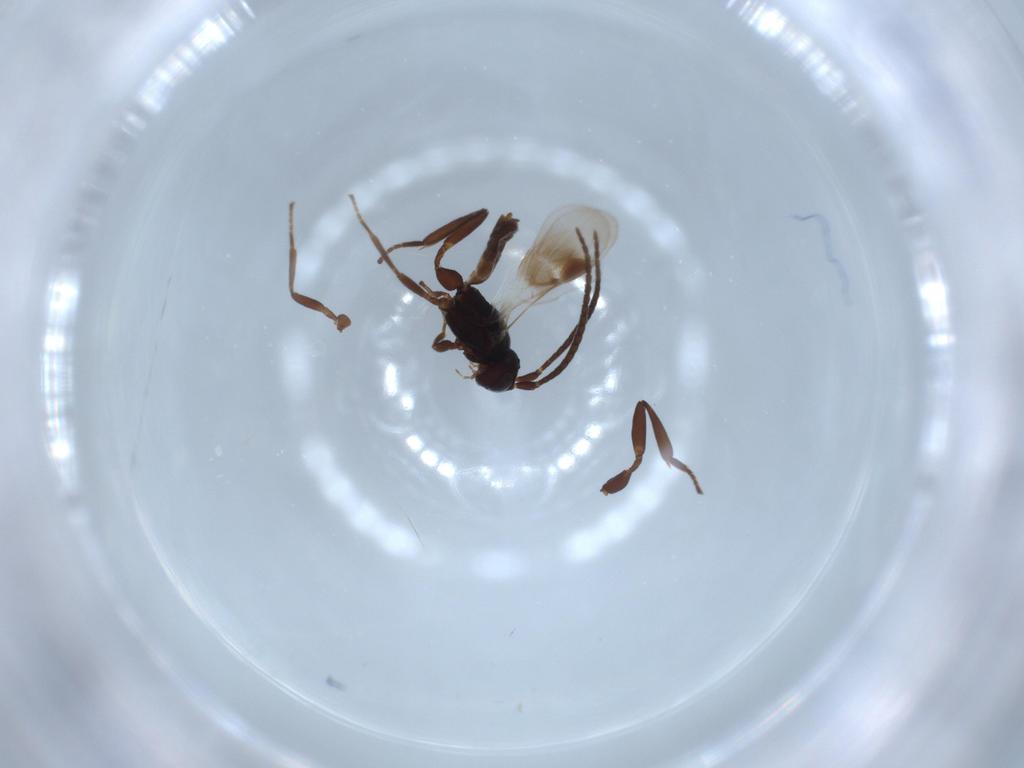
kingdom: Animalia
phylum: Arthropoda
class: Insecta
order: Hymenoptera
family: Braconidae
